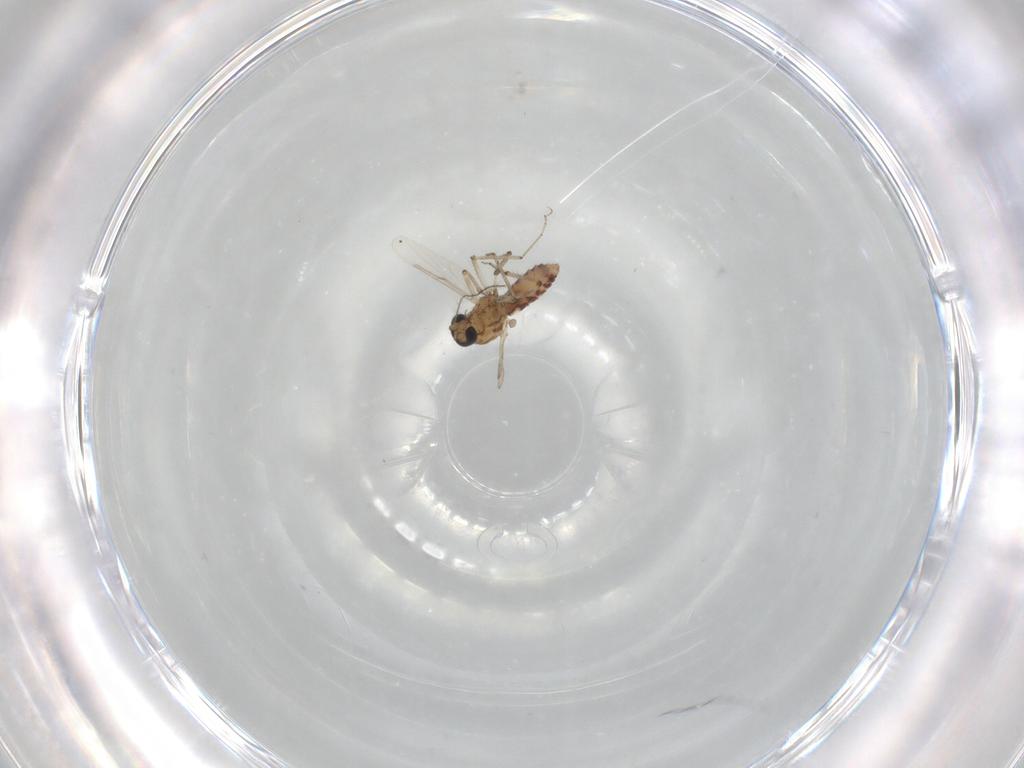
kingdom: Animalia
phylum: Arthropoda
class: Insecta
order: Diptera
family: Ceratopogonidae
